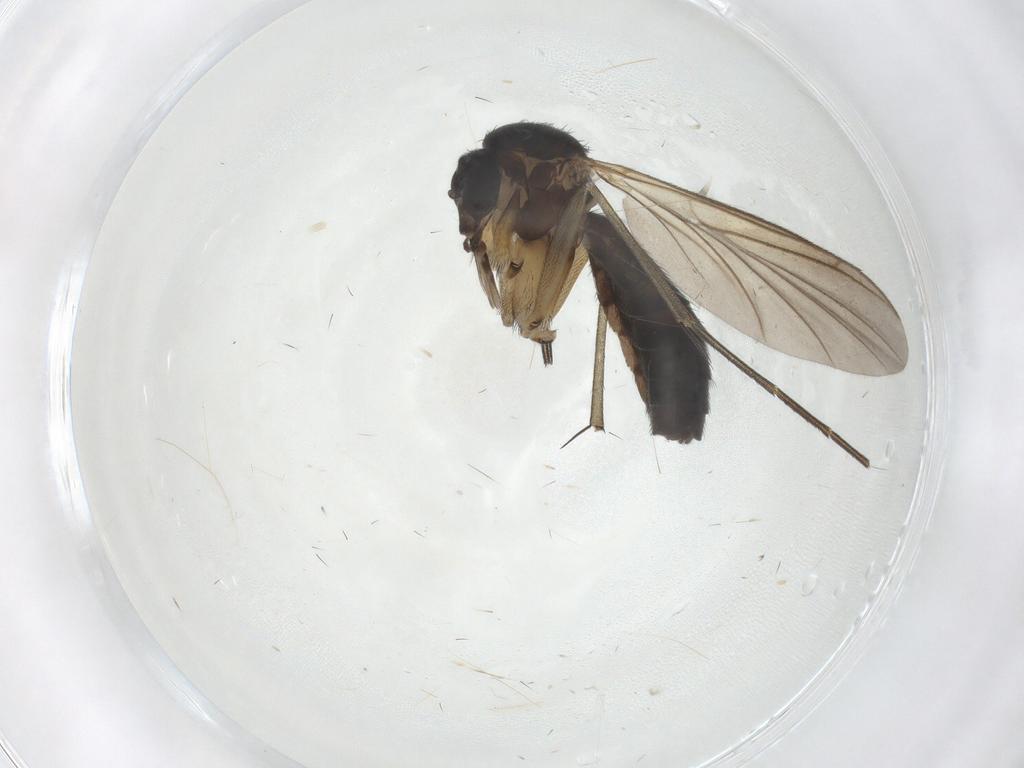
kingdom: Animalia
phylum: Arthropoda
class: Insecta
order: Diptera
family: Keroplatidae
